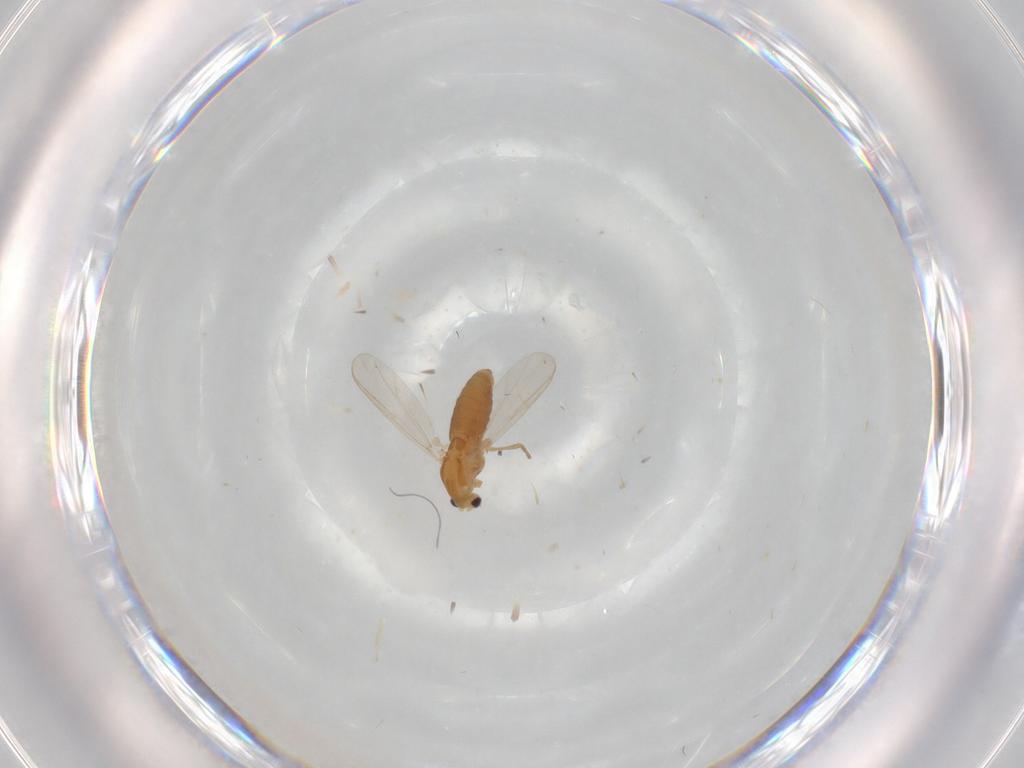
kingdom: Animalia
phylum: Arthropoda
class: Insecta
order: Diptera
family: Chironomidae
